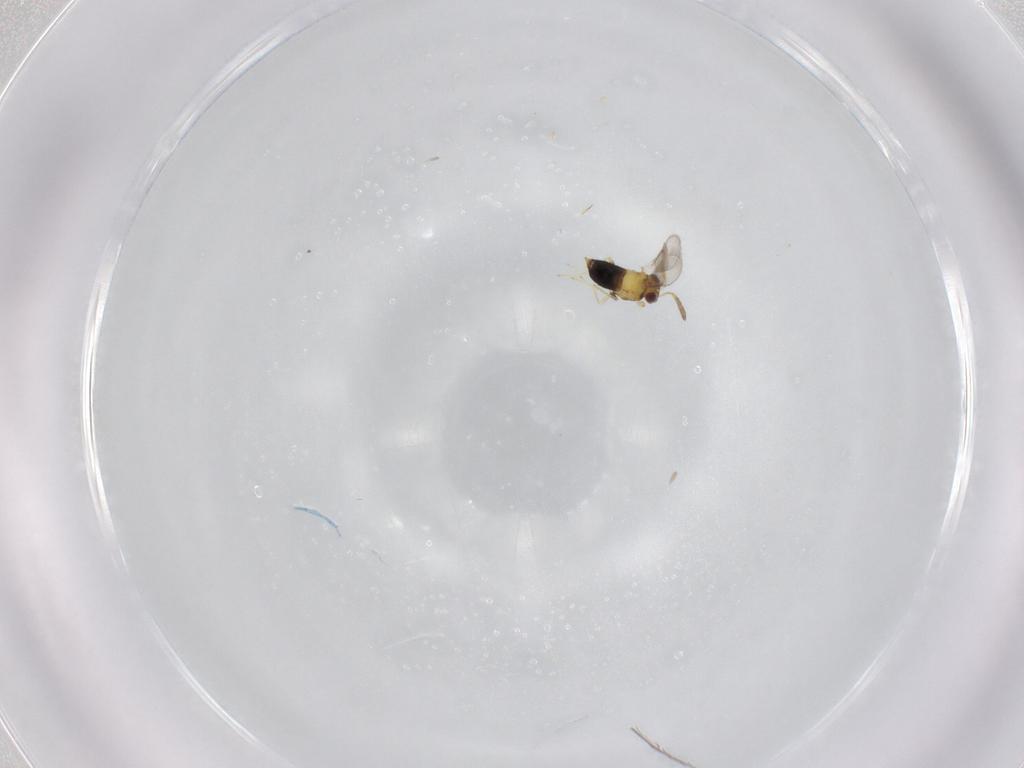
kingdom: Animalia
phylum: Arthropoda
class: Insecta
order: Hymenoptera
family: Aphelinidae
